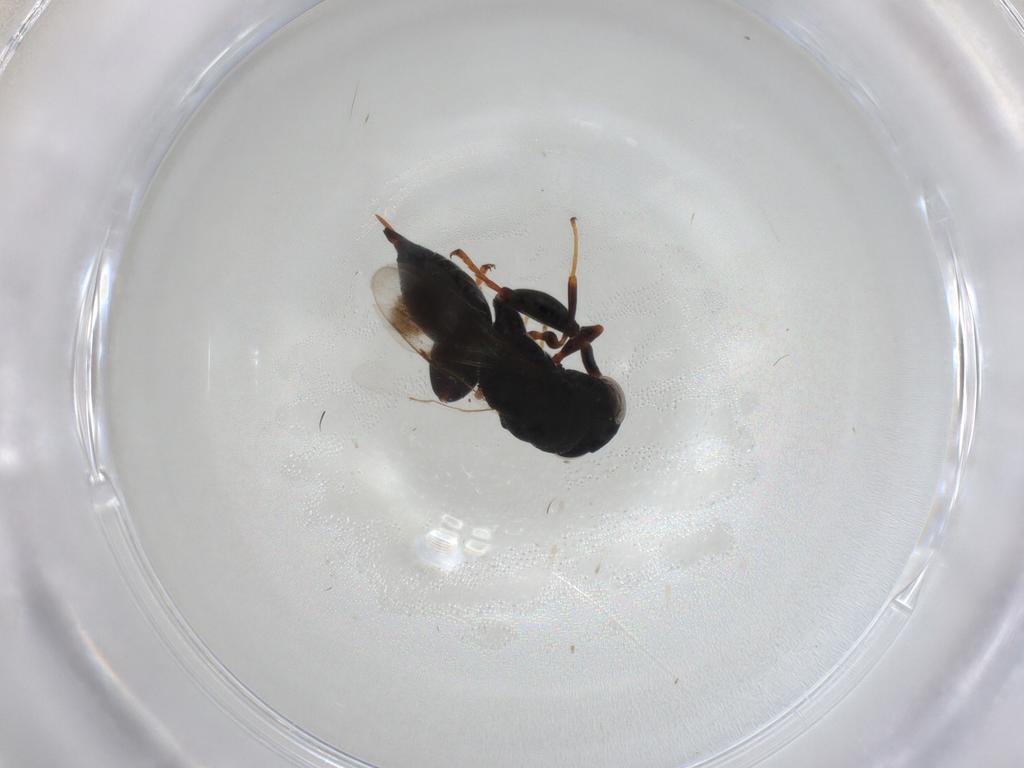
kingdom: Animalia
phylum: Arthropoda
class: Insecta
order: Hymenoptera
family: Chalcididae
